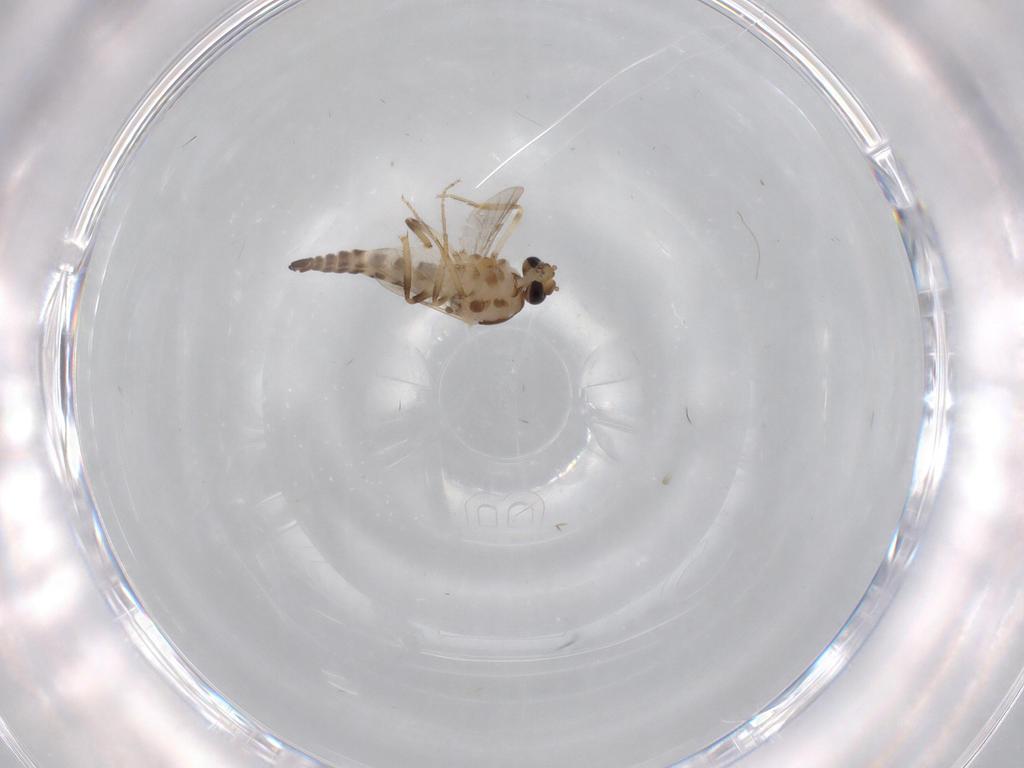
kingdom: Animalia
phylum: Arthropoda
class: Insecta
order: Diptera
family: Ceratopogonidae
